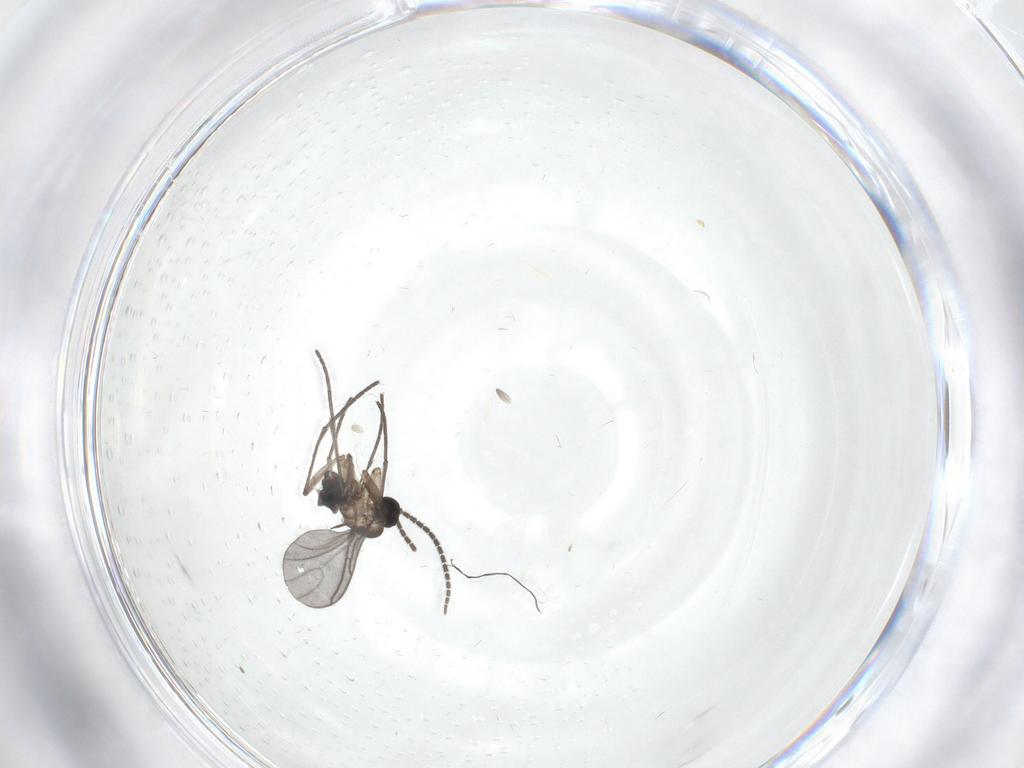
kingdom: Animalia
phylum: Arthropoda
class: Insecta
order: Diptera
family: Sciaridae
